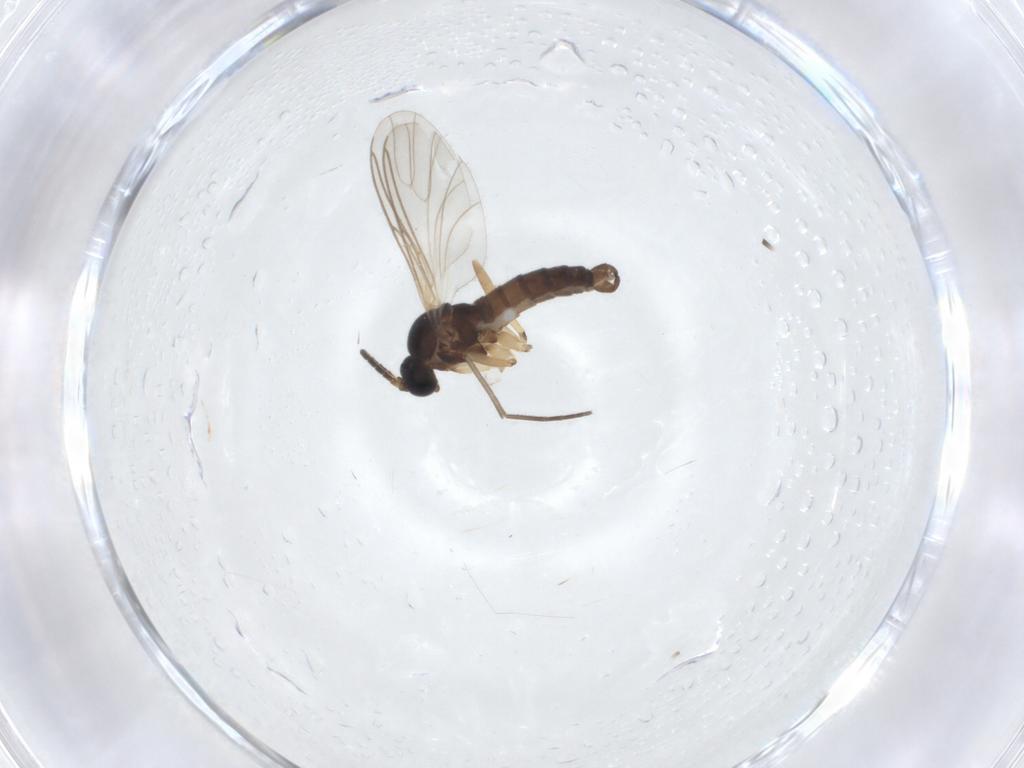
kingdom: Animalia
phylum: Arthropoda
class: Insecta
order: Diptera
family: Sciaridae
